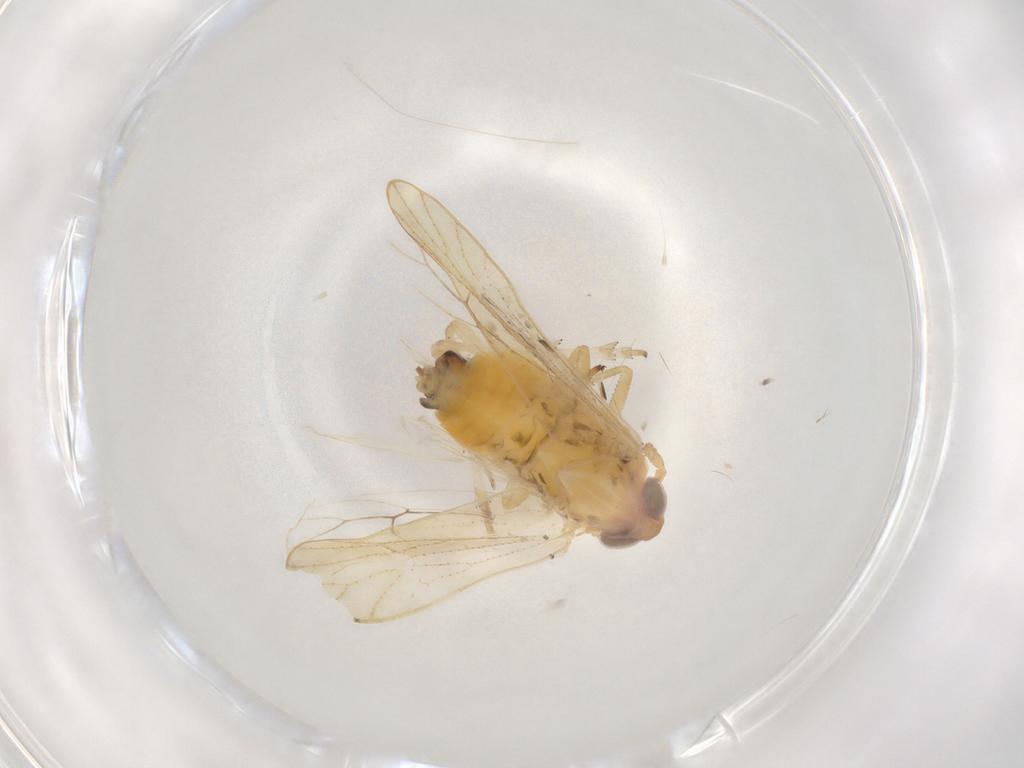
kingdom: Animalia
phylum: Arthropoda
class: Insecta
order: Hemiptera
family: Delphacidae
